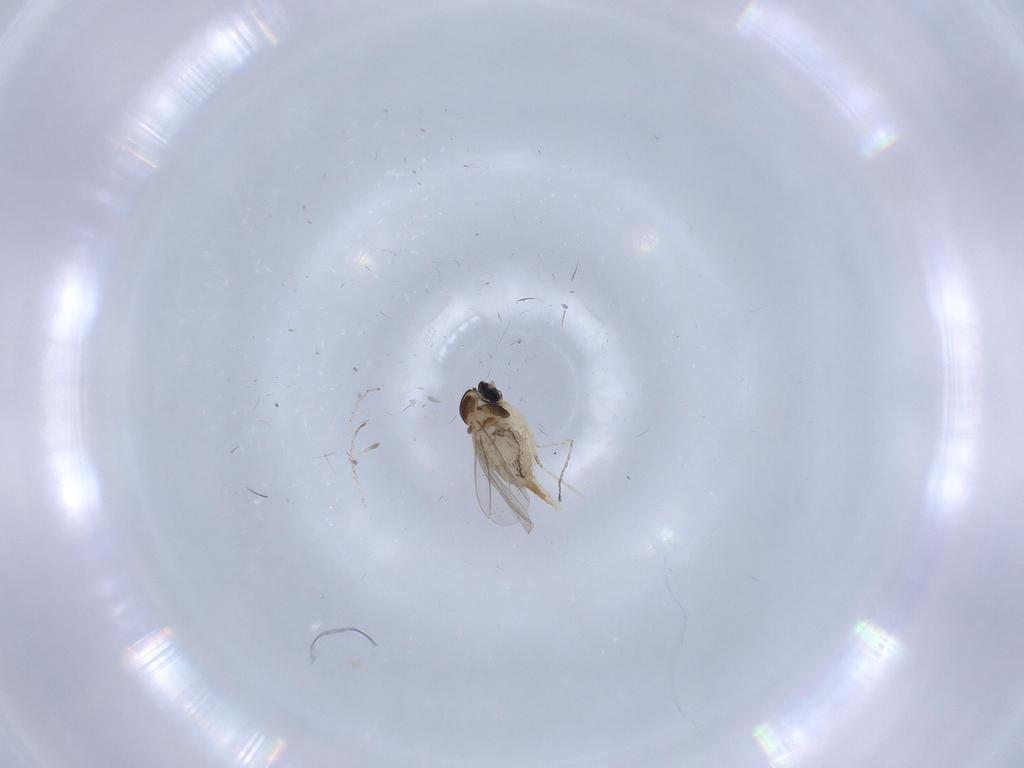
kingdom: Animalia
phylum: Arthropoda
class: Insecta
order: Diptera
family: Cecidomyiidae
